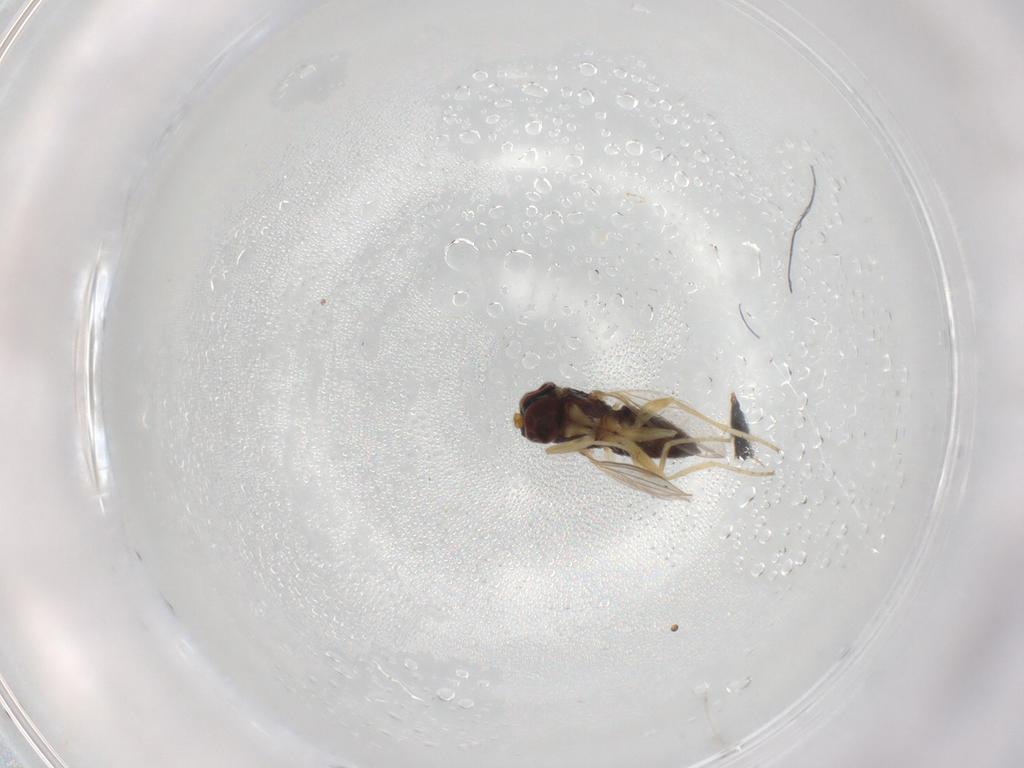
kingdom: Animalia
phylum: Arthropoda
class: Insecta
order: Diptera
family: Dolichopodidae
